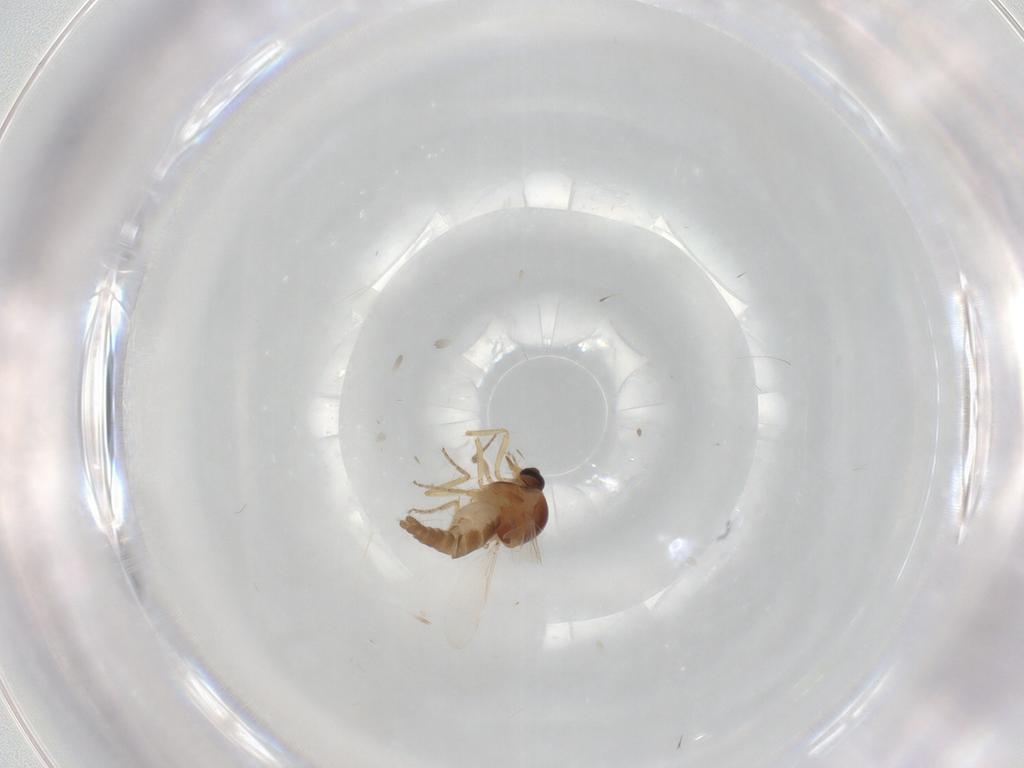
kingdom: Animalia
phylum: Arthropoda
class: Insecta
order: Diptera
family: Ceratopogonidae
